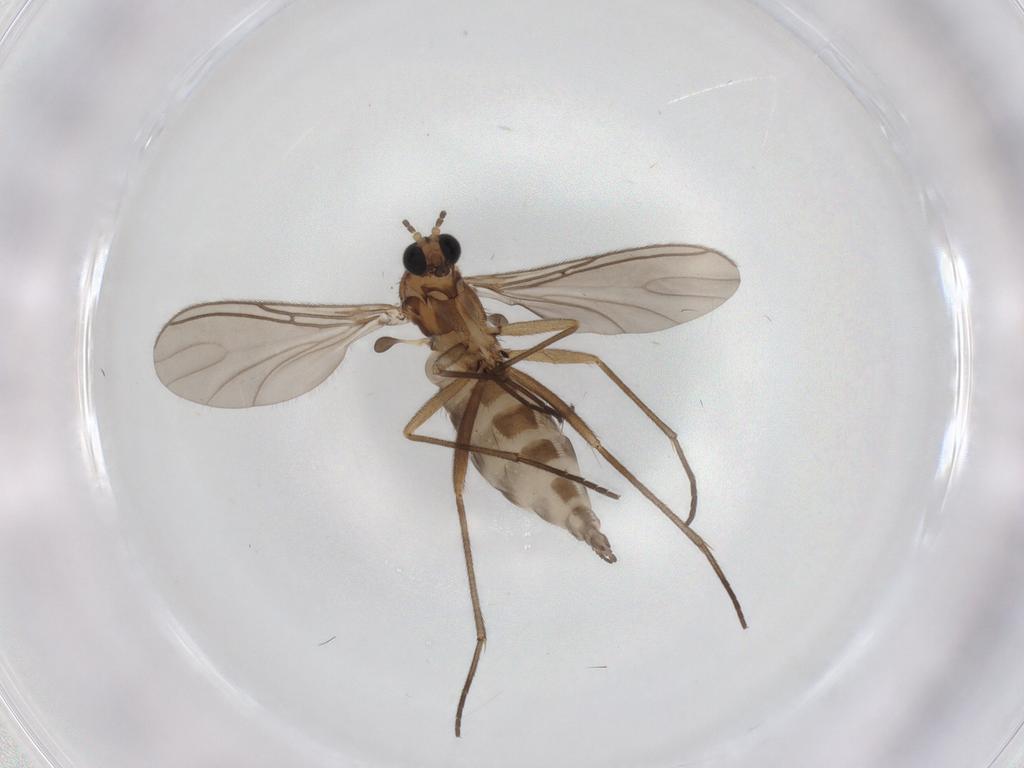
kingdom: Animalia
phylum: Arthropoda
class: Insecta
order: Diptera
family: Sciaridae
